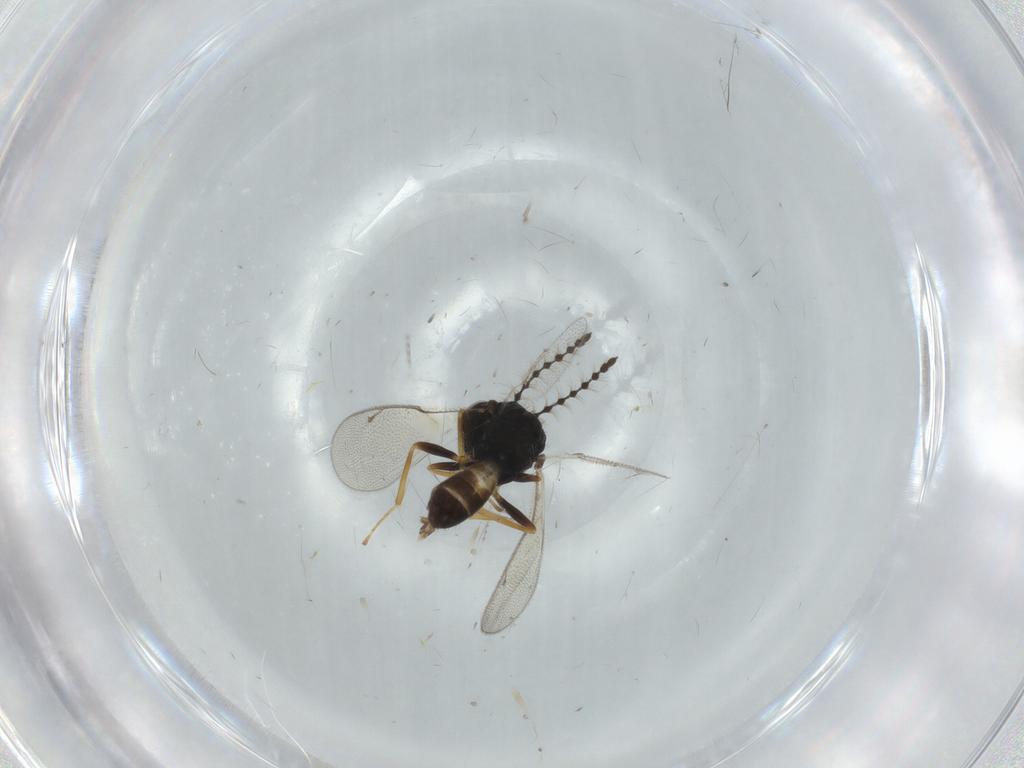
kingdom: Animalia
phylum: Arthropoda
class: Insecta
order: Hymenoptera
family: Pteromalidae
